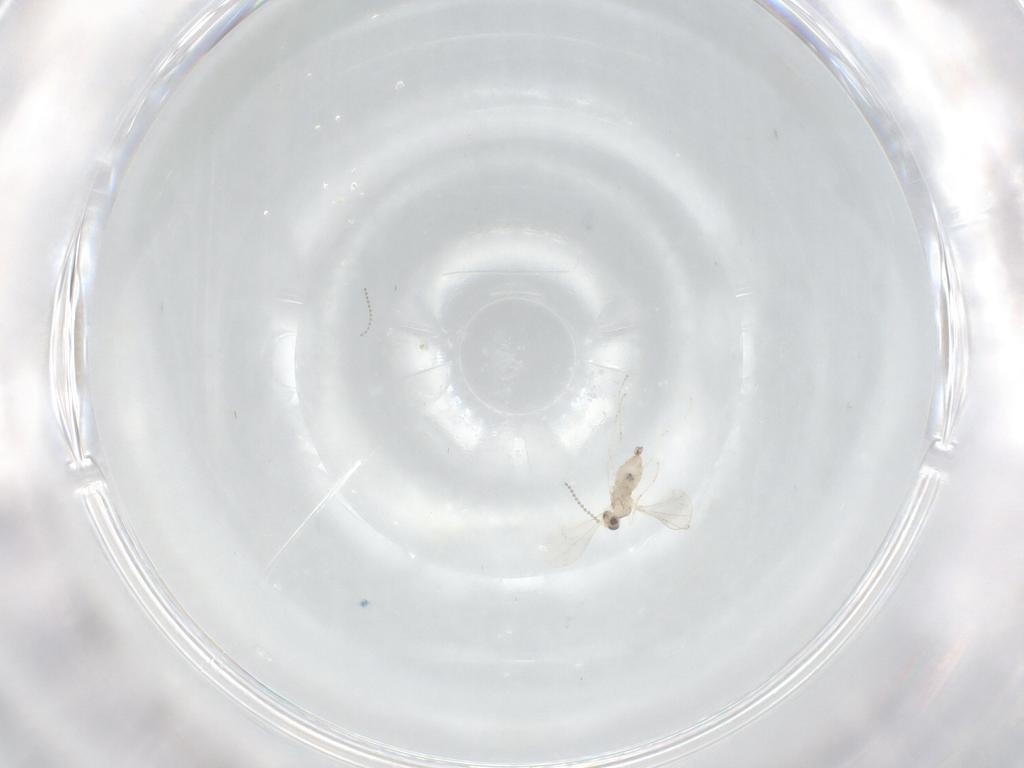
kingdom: Animalia
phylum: Arthropoda
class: Insecta
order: Diptera
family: Cecidomyiidae
